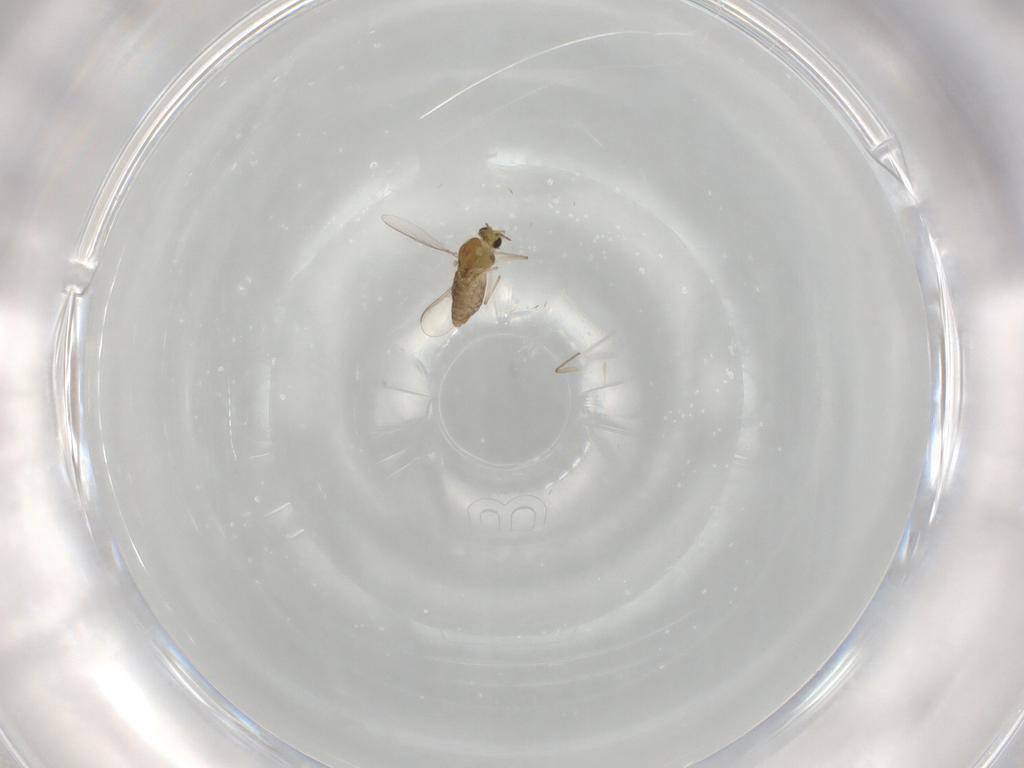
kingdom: Animalia
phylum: Arthropoda
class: Insecta
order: Diptera
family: Chironomidae
